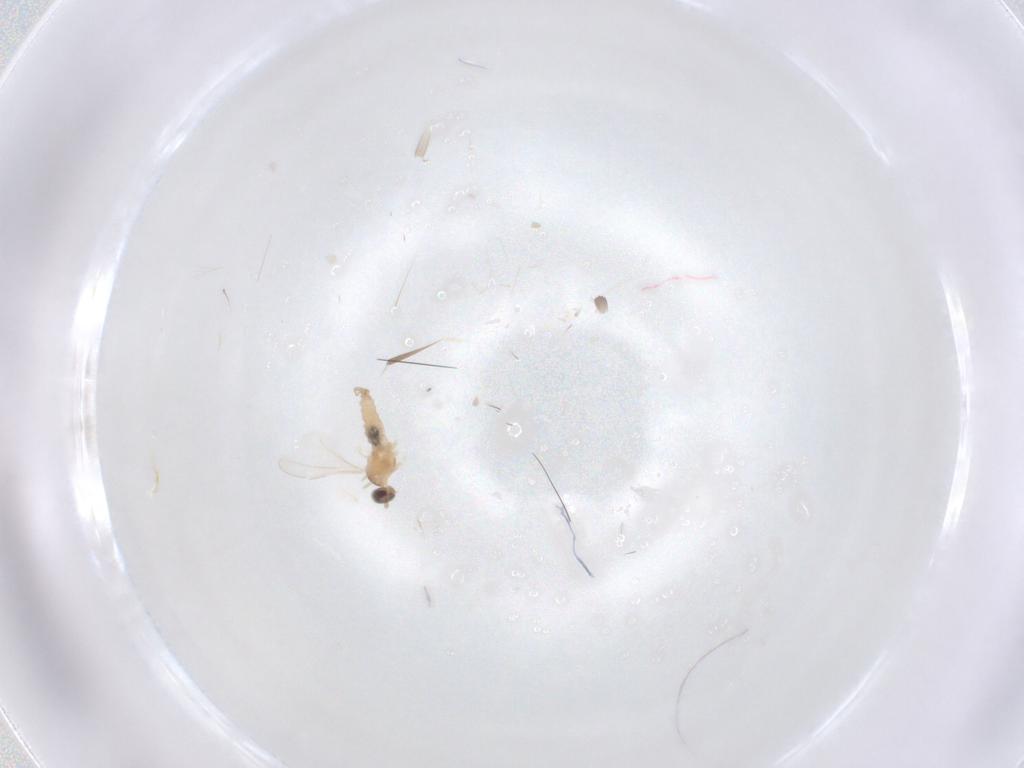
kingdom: Animalia
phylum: Arthropoda
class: Insecta
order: Diptera
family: Cecidomyiidae
